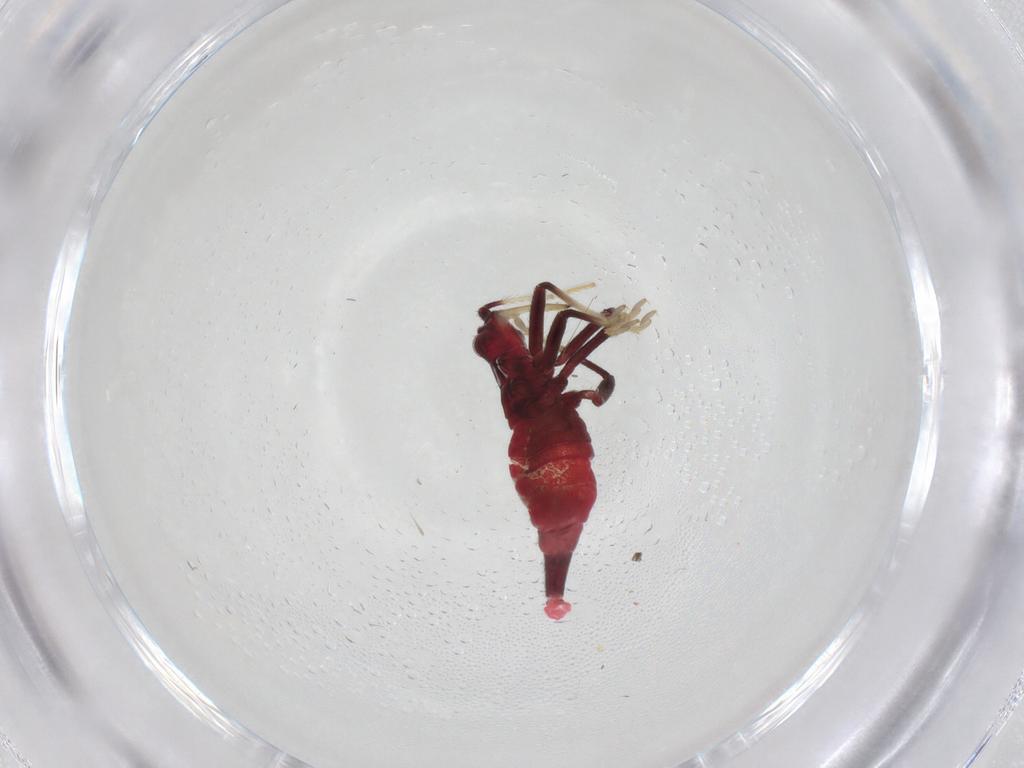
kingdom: Animalia
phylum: Arthropoda
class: Insecta
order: Hemiptera
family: Miridae
